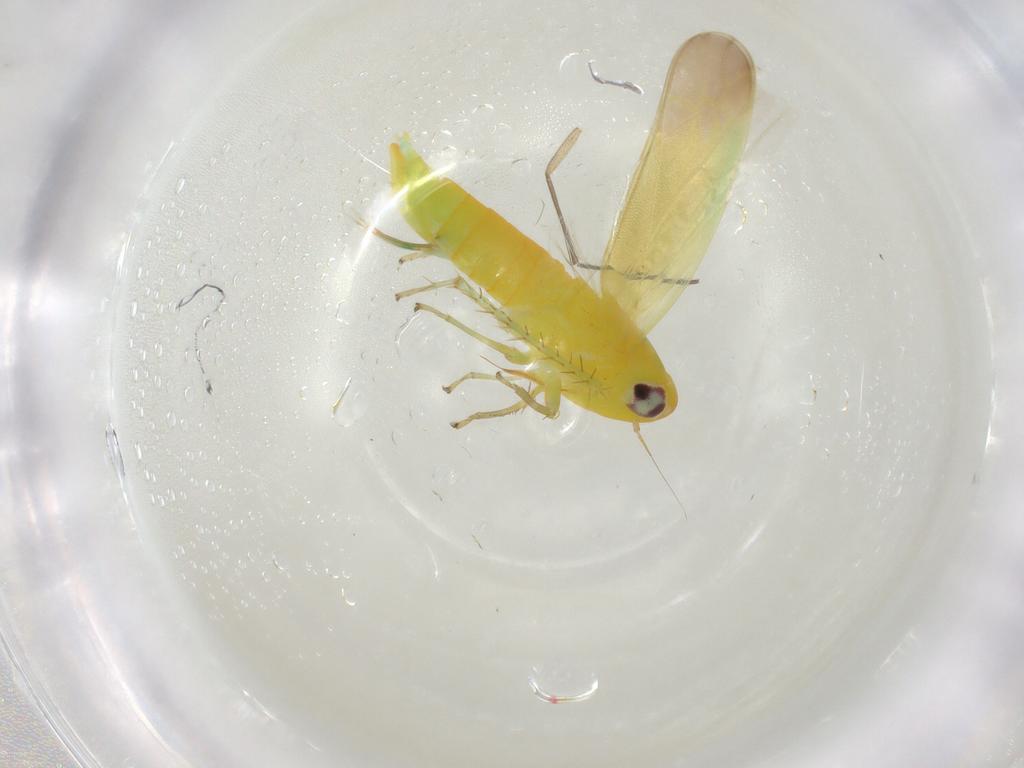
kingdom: Animalia
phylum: Arthropoda
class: Insecta
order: Hemiptera
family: Cicadellidae
